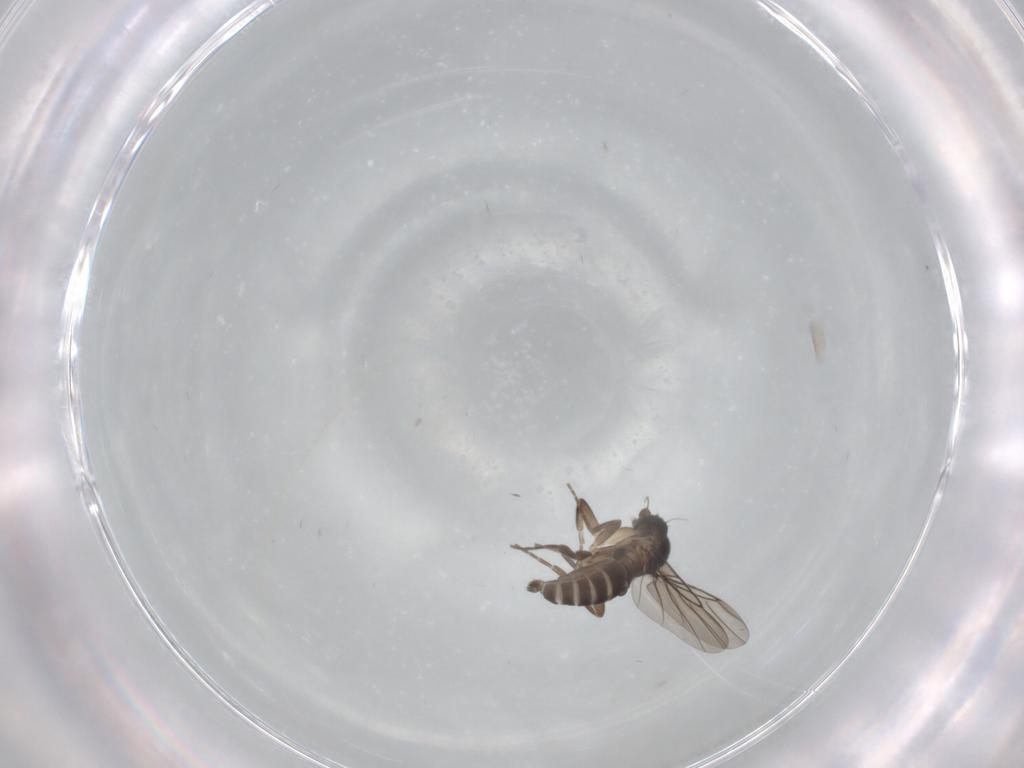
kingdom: Animalia
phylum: Arthropoda
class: Insecta
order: Diptera
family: Phoridae
